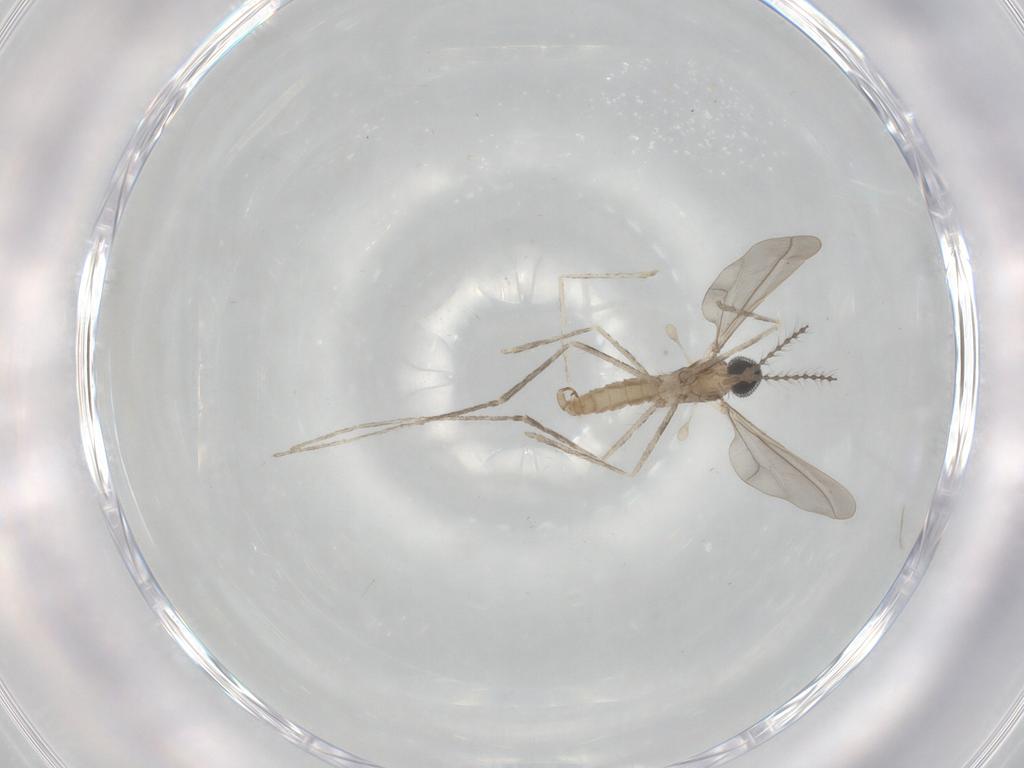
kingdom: Animalia
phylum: Arthropoda
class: Insecta
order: Diptera
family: Cecidomyiidae
